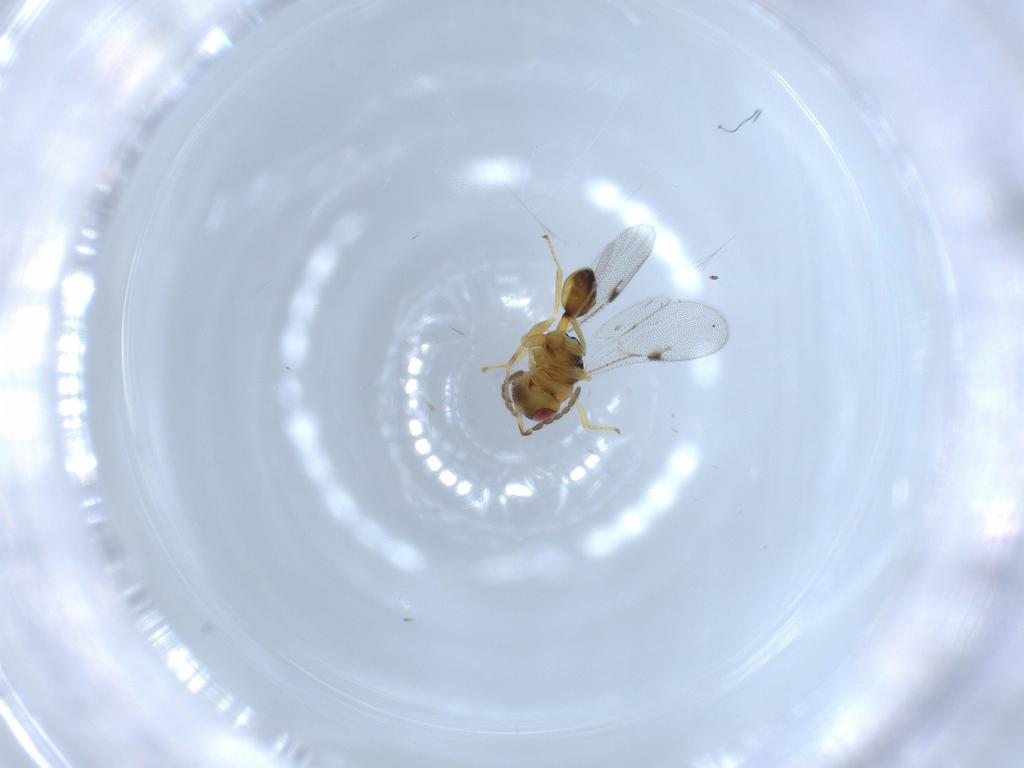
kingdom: Animalia
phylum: Arthropoda
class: Insecta
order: Hymenoptera
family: Eurytomidae
